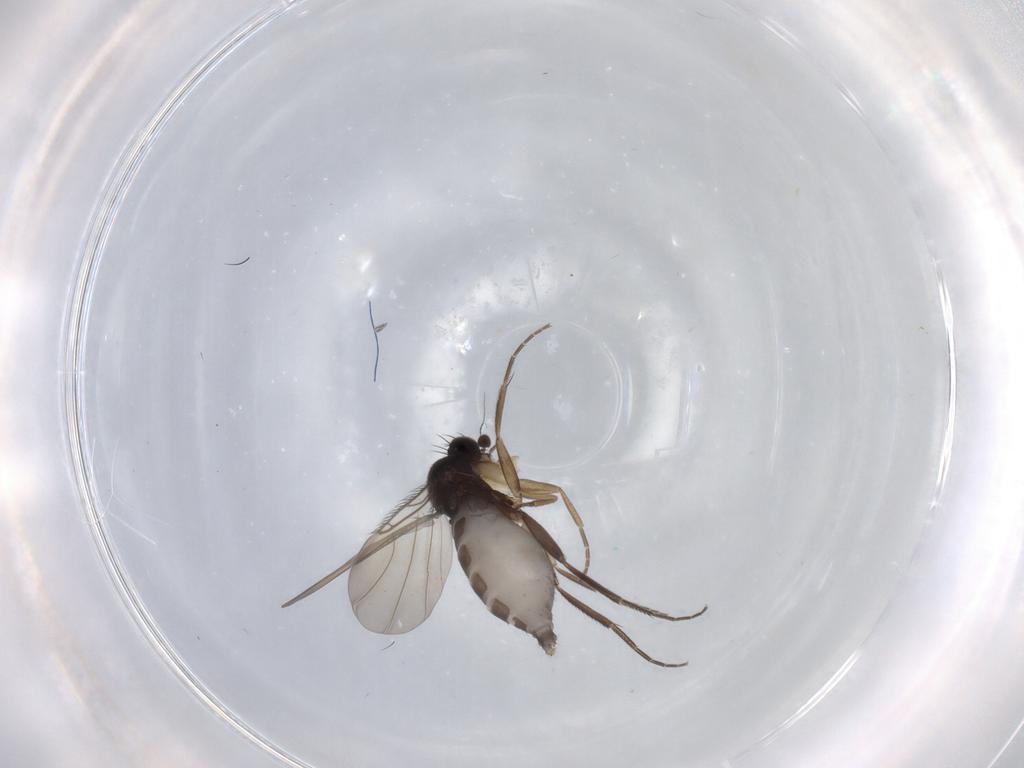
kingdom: Animalia
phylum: Arthropoda
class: Insecta
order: Diptera
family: Phoridae
